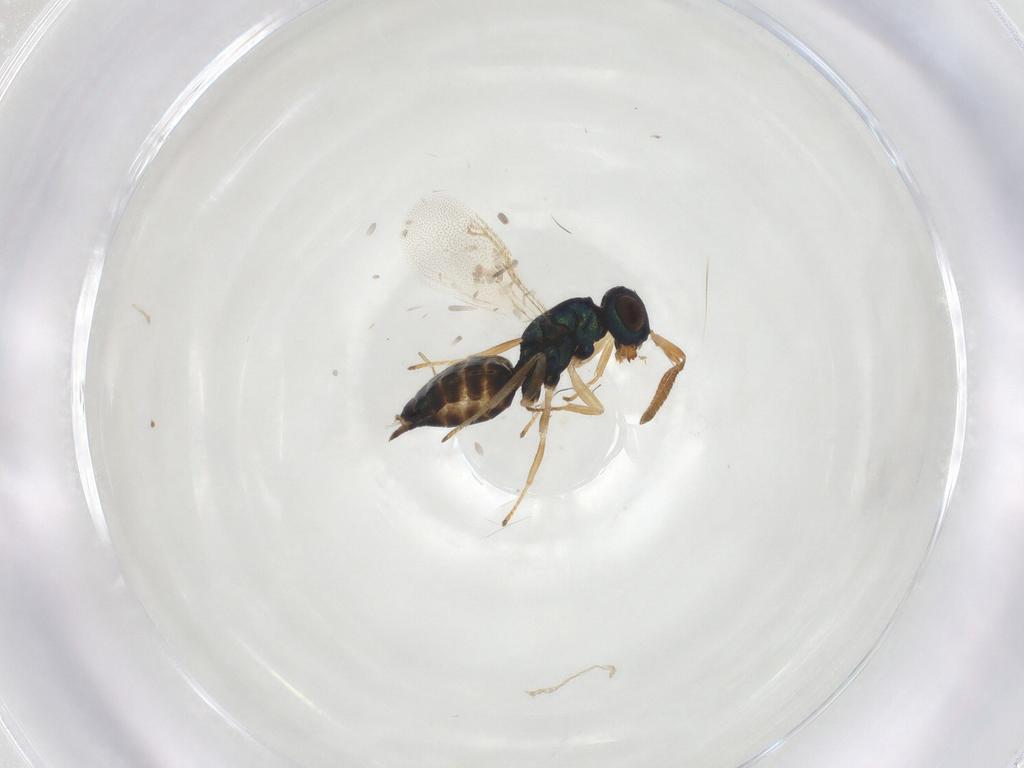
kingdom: Animalia
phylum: Arthropoda
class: Insecta
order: Hymenoptera
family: Pteromalidae
